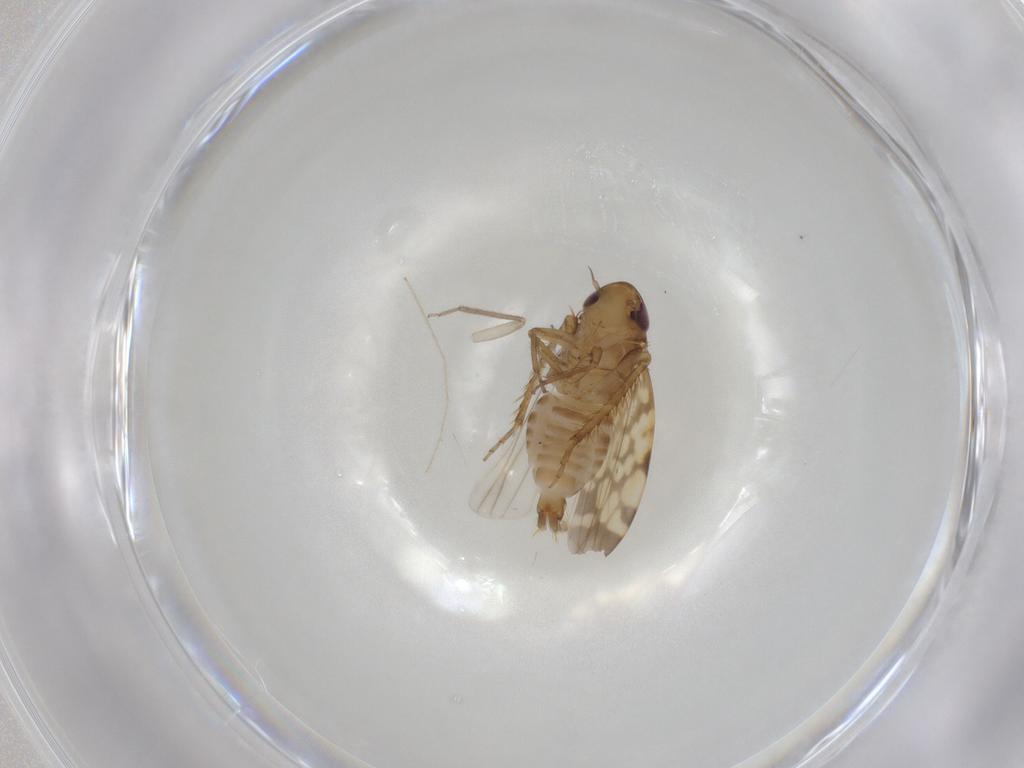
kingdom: Animalia
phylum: Arthropoda
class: Insecta
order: Hemiptera
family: Cicadellidae
